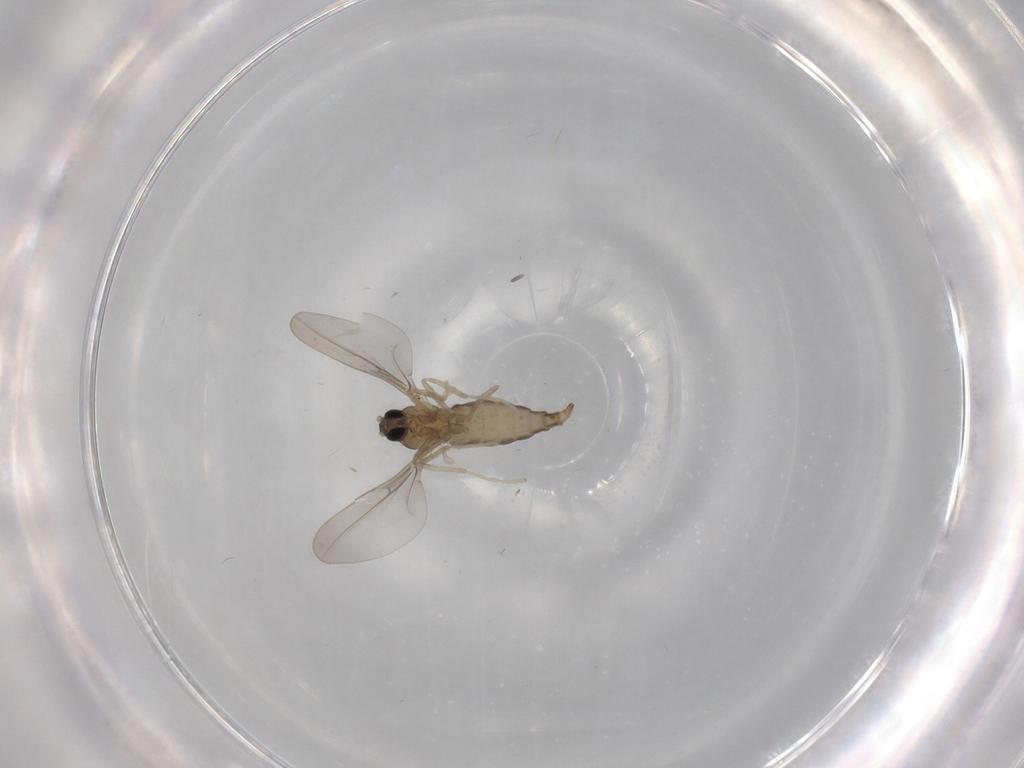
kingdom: Animalia
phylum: Arthropoda
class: Insecta
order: Diptera
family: Cecidomyiidae
